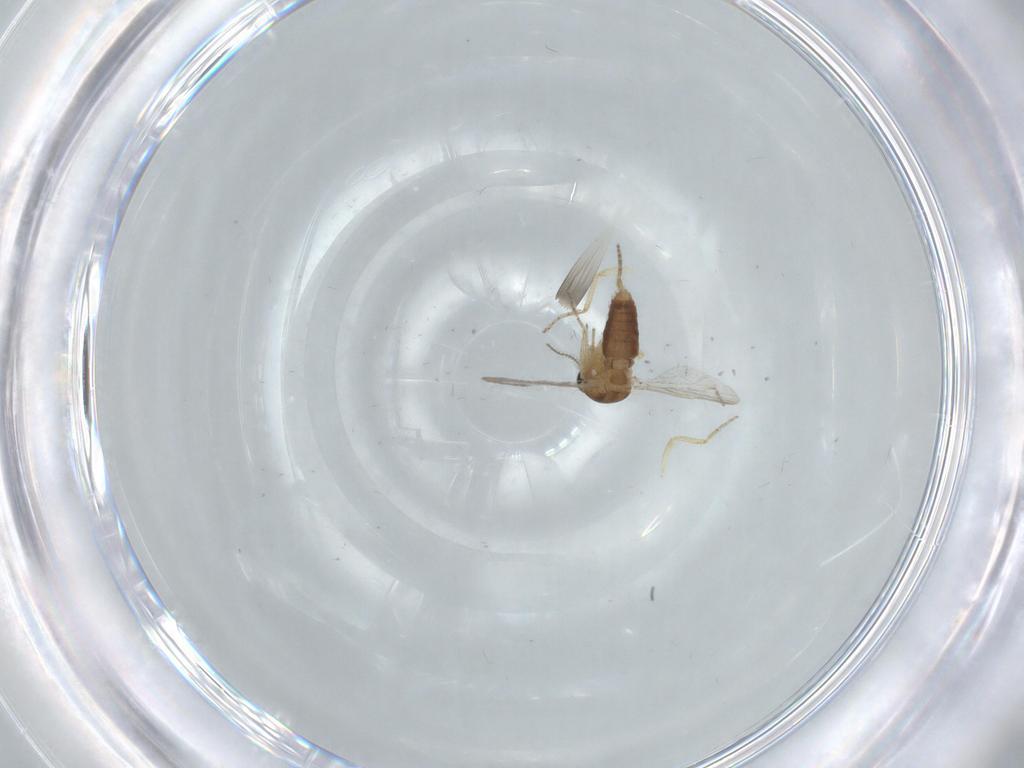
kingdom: Animalia
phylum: Arthropoda
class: Insecta
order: Diptera
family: Ceratopogonidae
